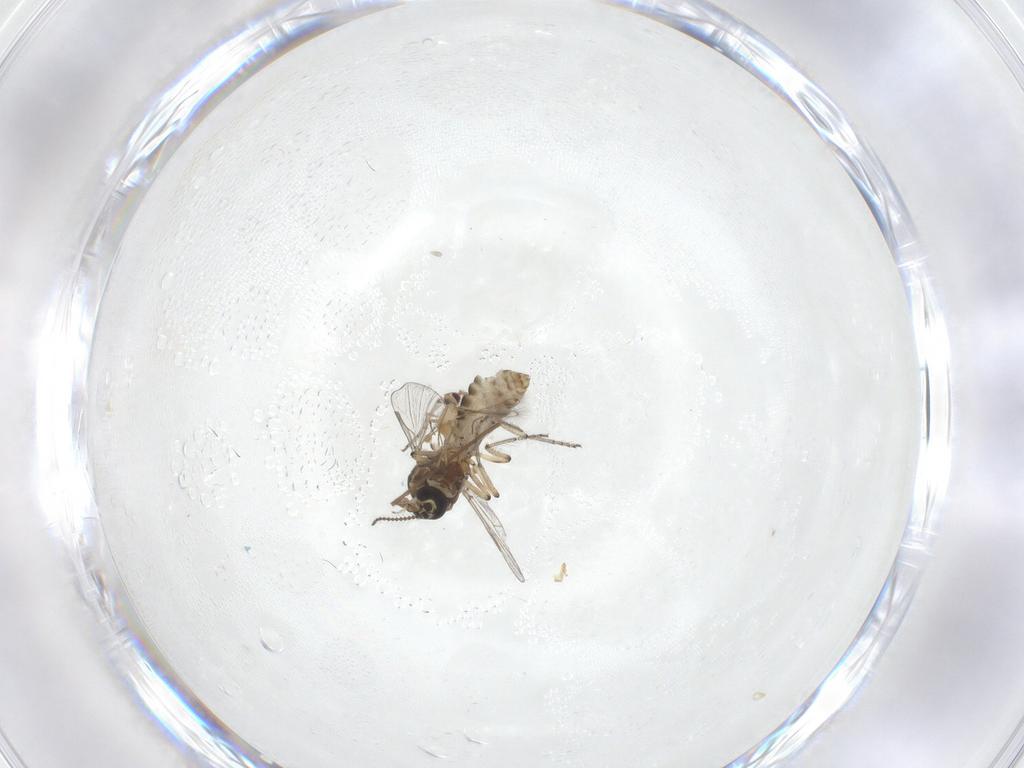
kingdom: Animalia
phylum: Arthropoda
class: Insecta
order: Diptera
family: Ceratopogonidae
